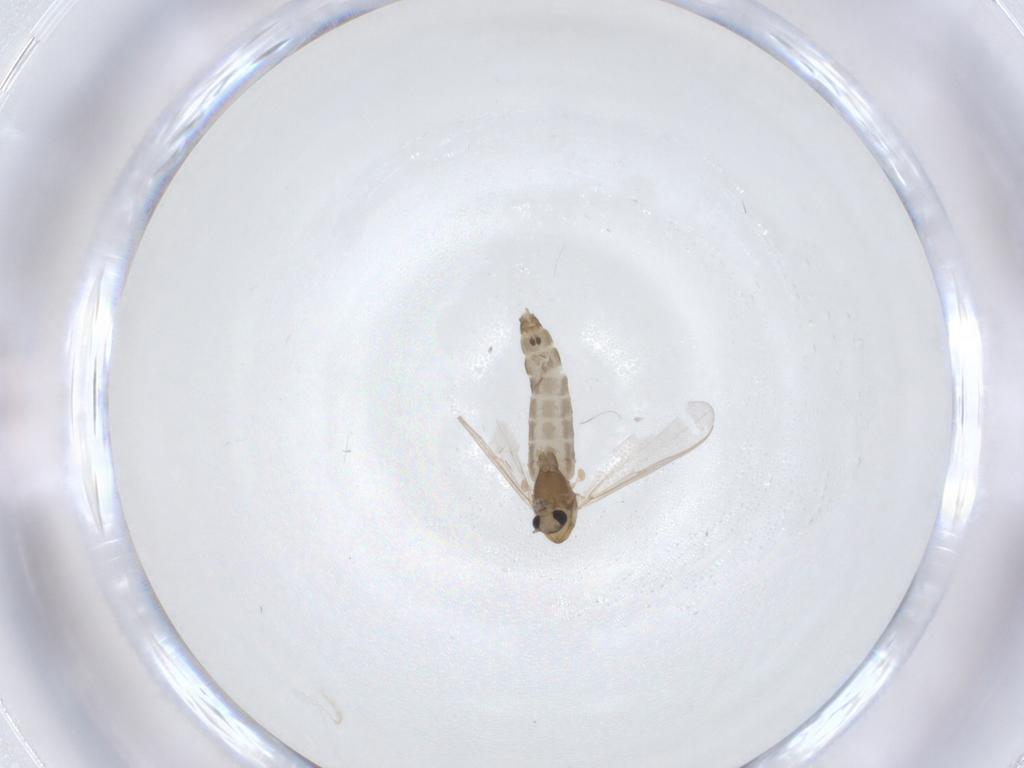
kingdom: Animalia
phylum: Arthropoda
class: Insecta
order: Diptera
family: Chironomidae
